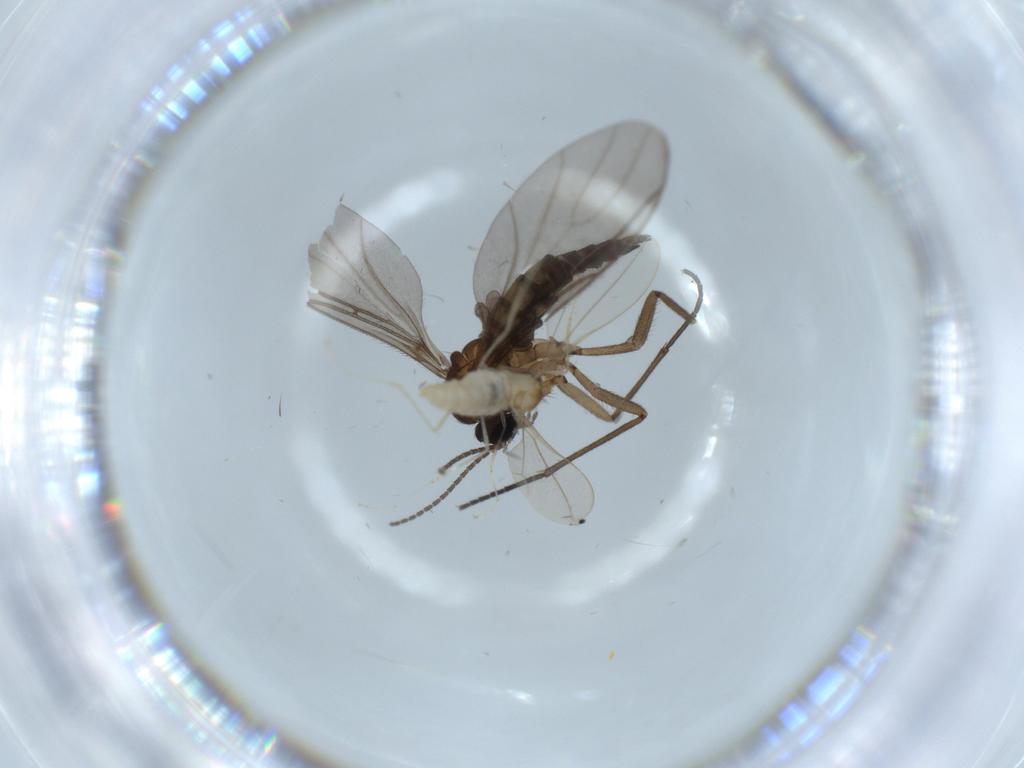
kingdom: Animalia
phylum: Arthropoda
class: Insecta
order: Diptera
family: Cecidomyiidae
